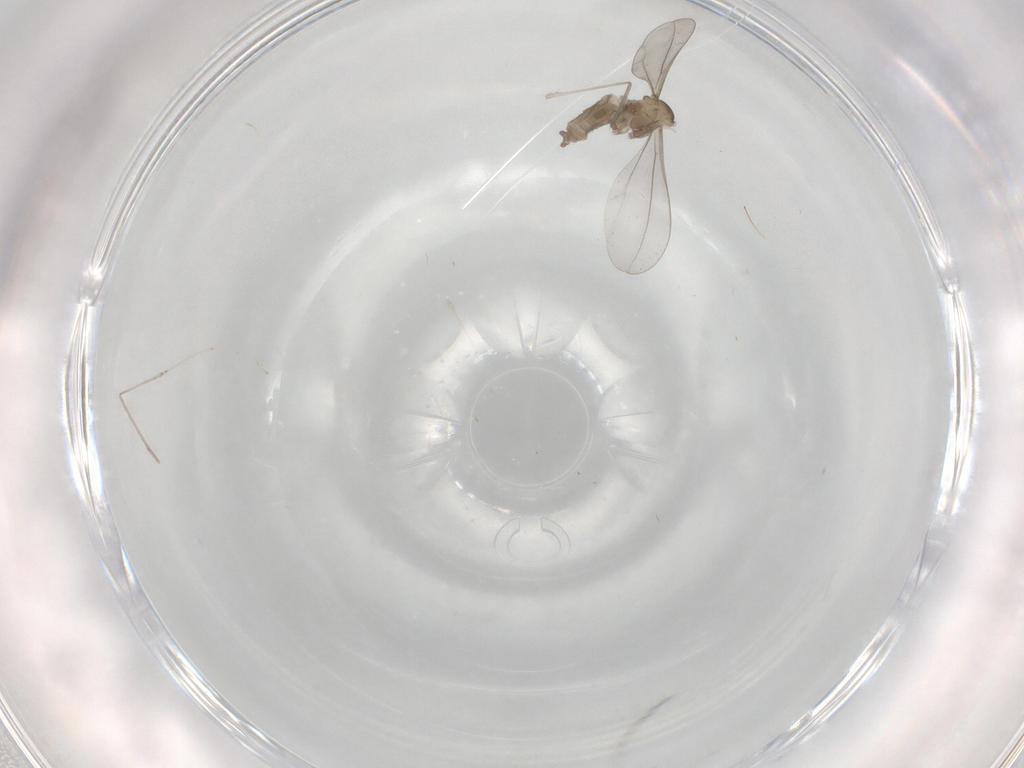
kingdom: Animalia
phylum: Arthropoda
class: Insecta
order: Diptera
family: Cecidomyiidae
